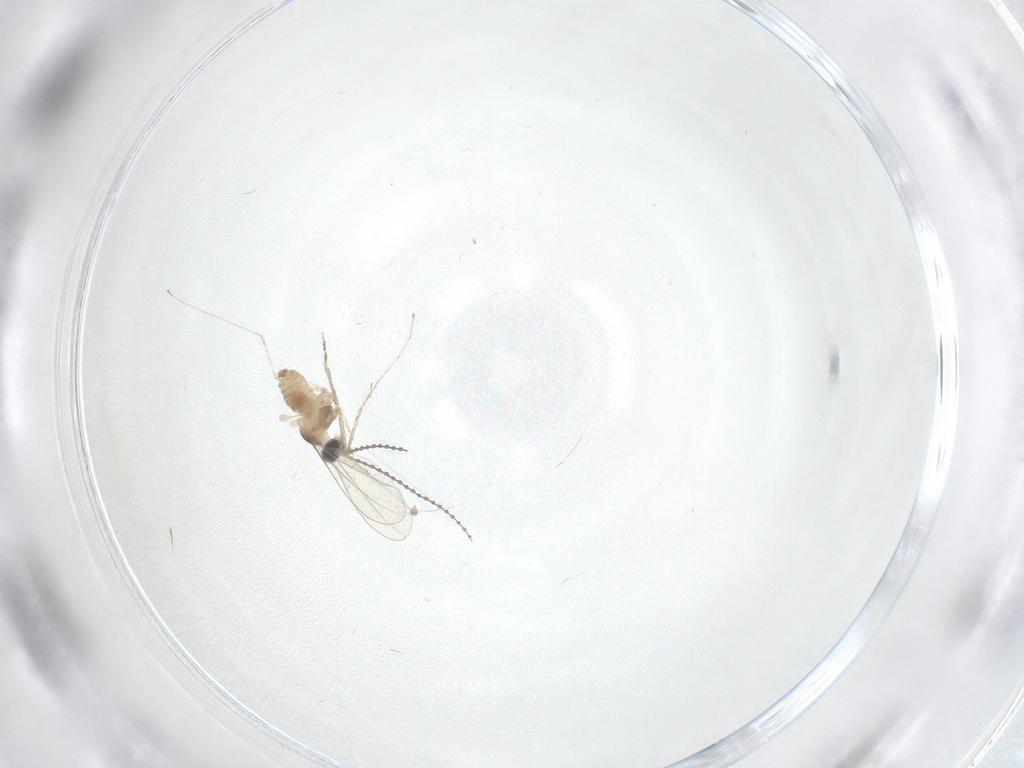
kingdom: Animalia
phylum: Arthropoda
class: Insecta
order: Diptera
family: Cecidomyiidae
